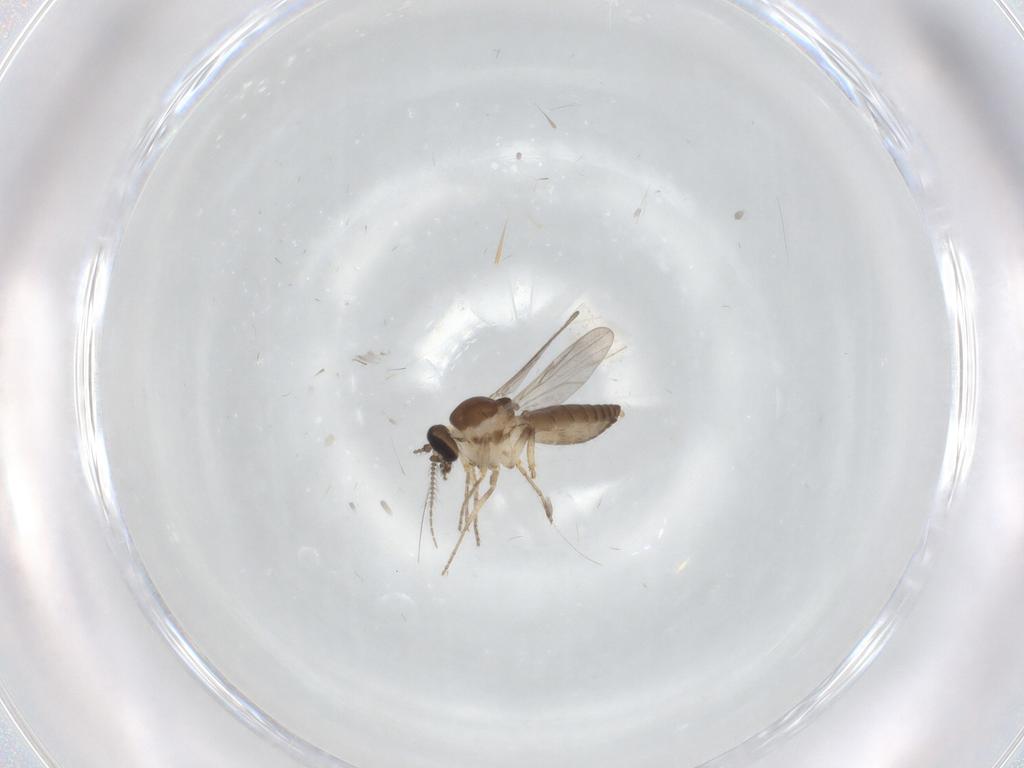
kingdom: Animalia
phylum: Arthropoda
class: Insecta
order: Diptera
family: Ceratopogonidae
